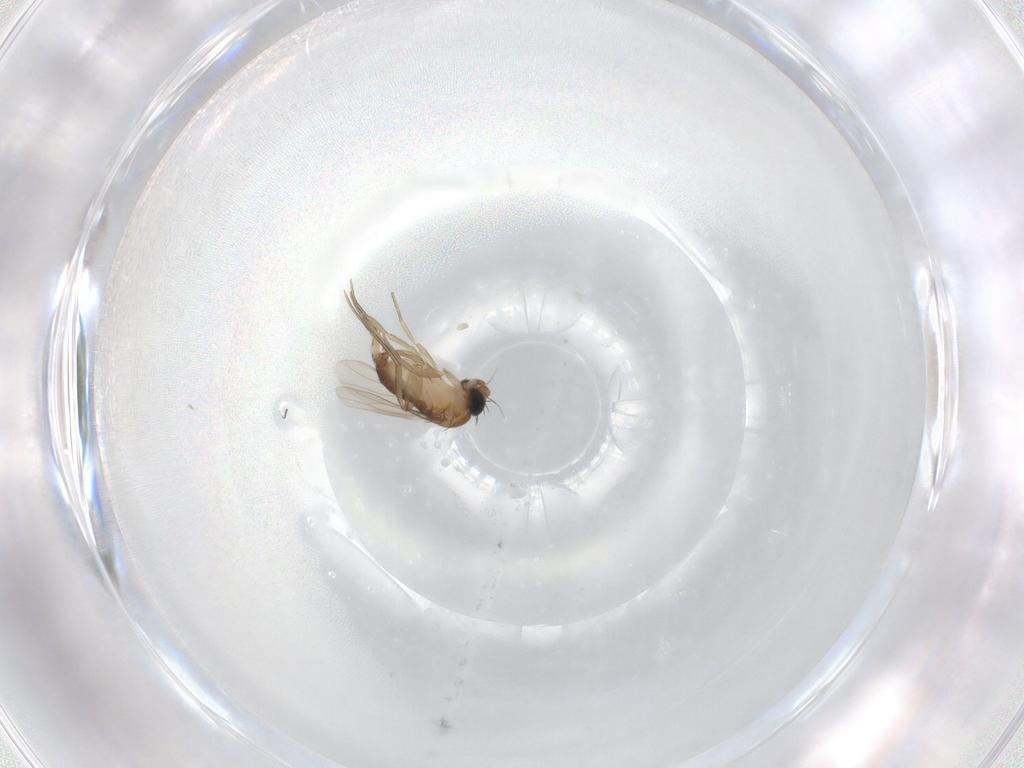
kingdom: Animalia
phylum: Arthropoda
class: Insecta
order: Diptera
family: Phoridae
